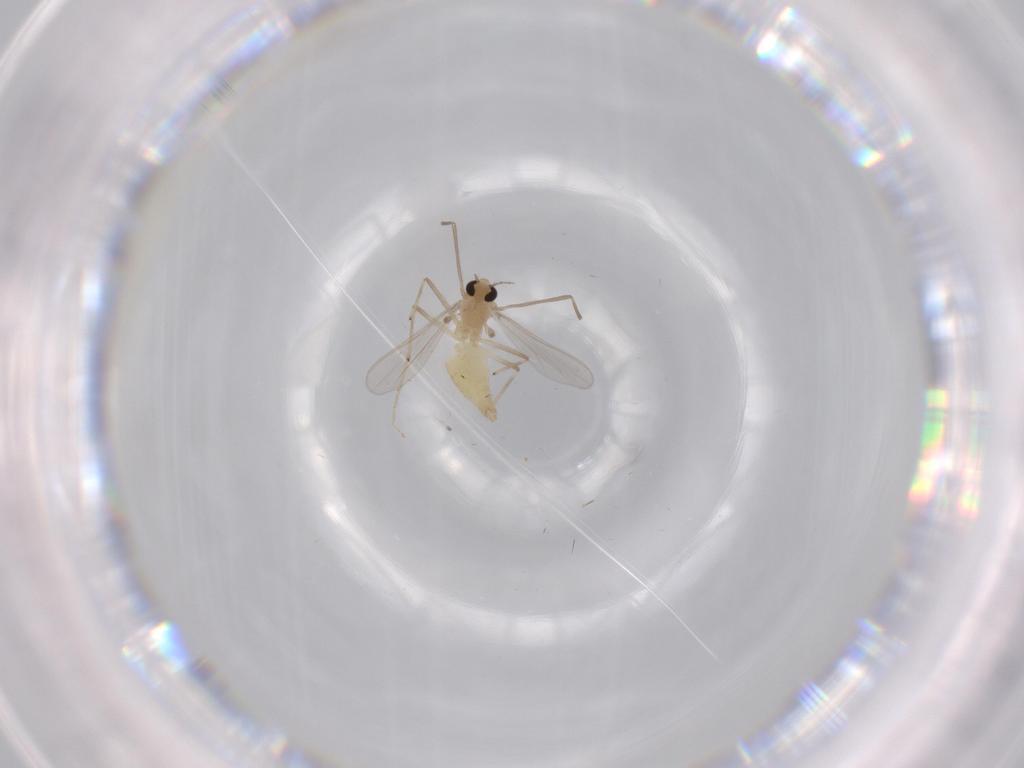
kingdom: Animalia
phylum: Arthropoda
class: Insecta
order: Diptera
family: Chironomidae
